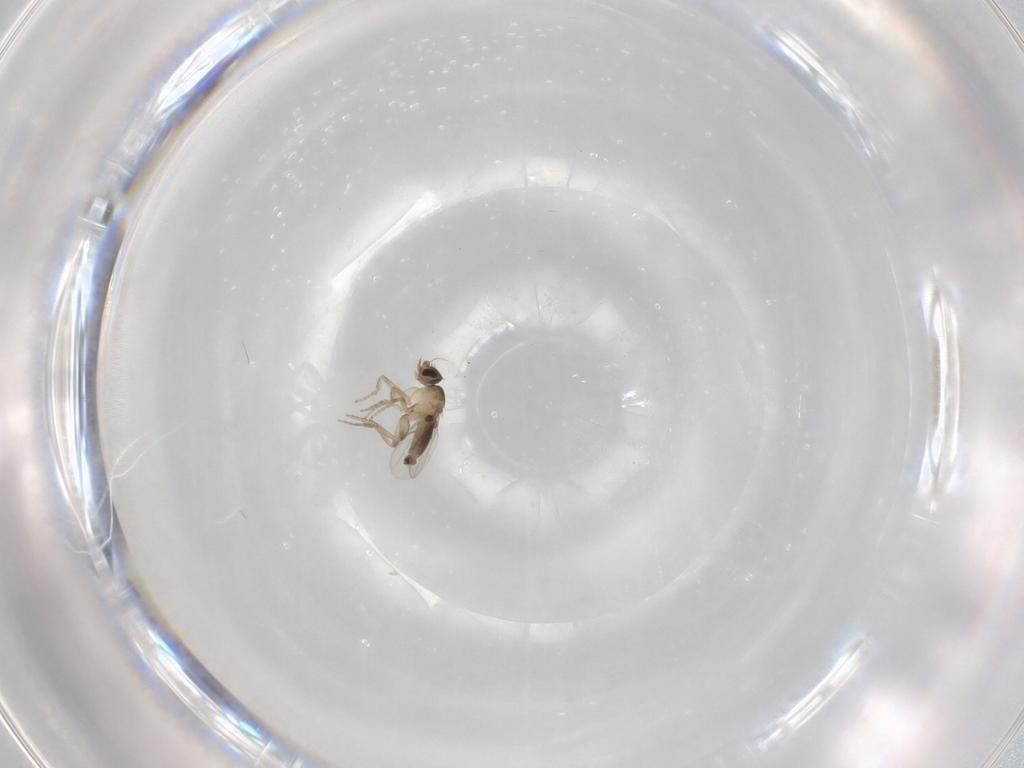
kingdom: Animalia
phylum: Arthropoda
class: Insecta
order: Diptera
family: Phoridae
